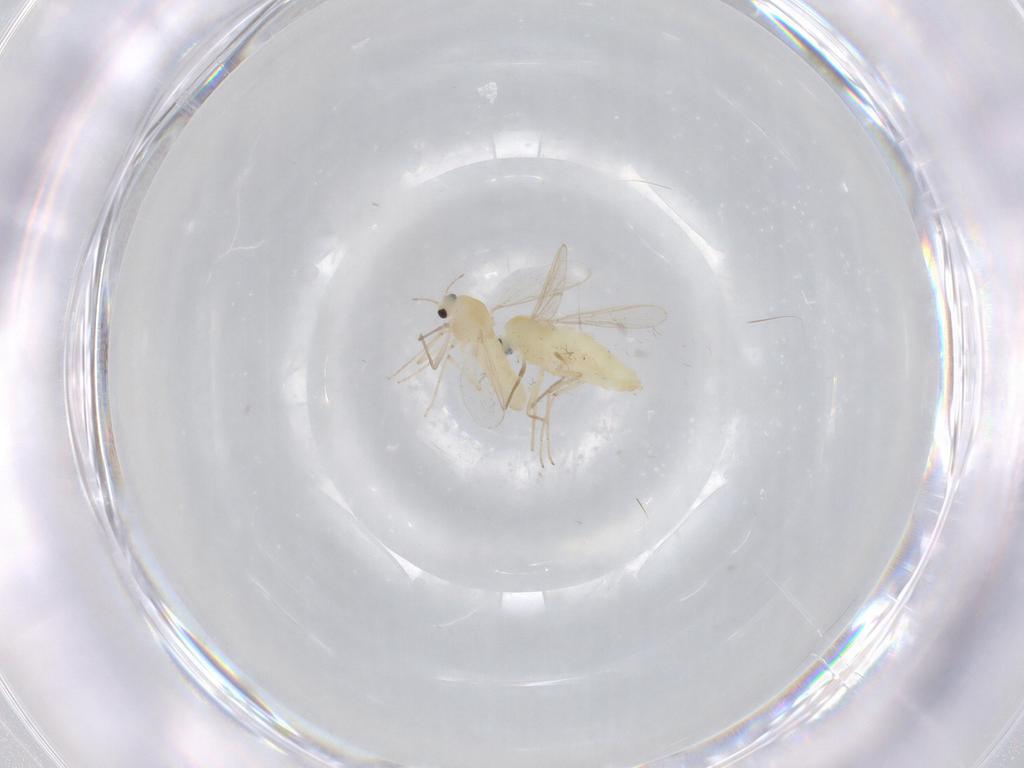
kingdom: Animalia
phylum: Arthropoda
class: Insecta
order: Diptera
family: Chironomidae
